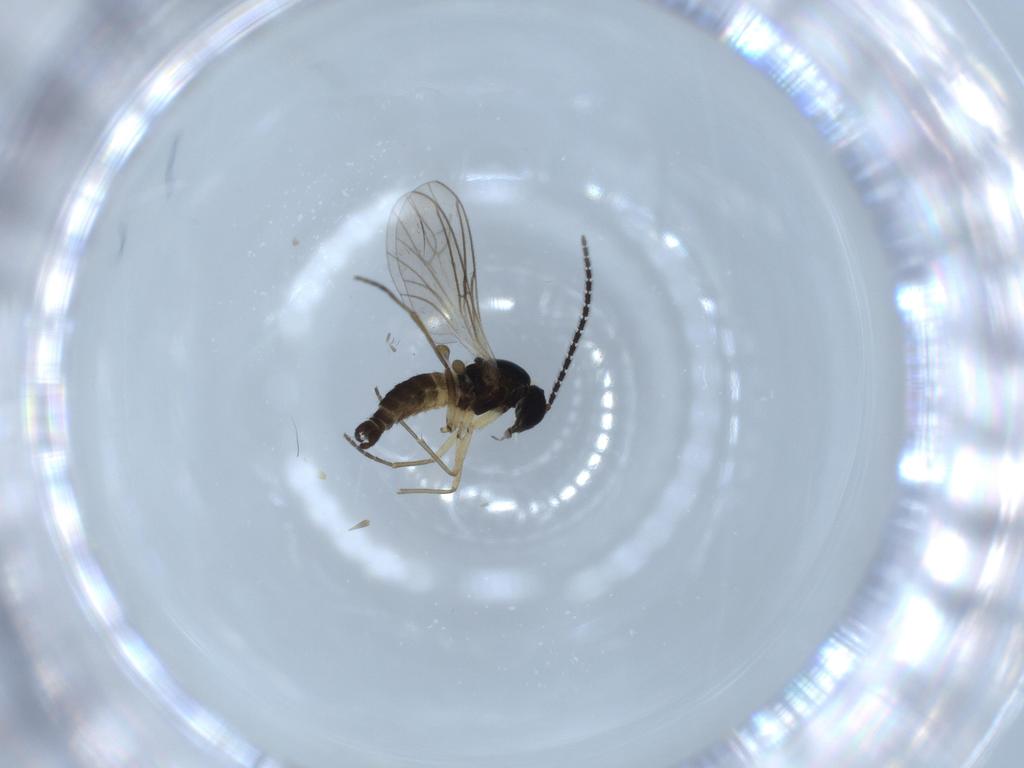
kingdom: Animalia
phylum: Arthropoda
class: Insecta
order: Diptera
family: Sciaridae
